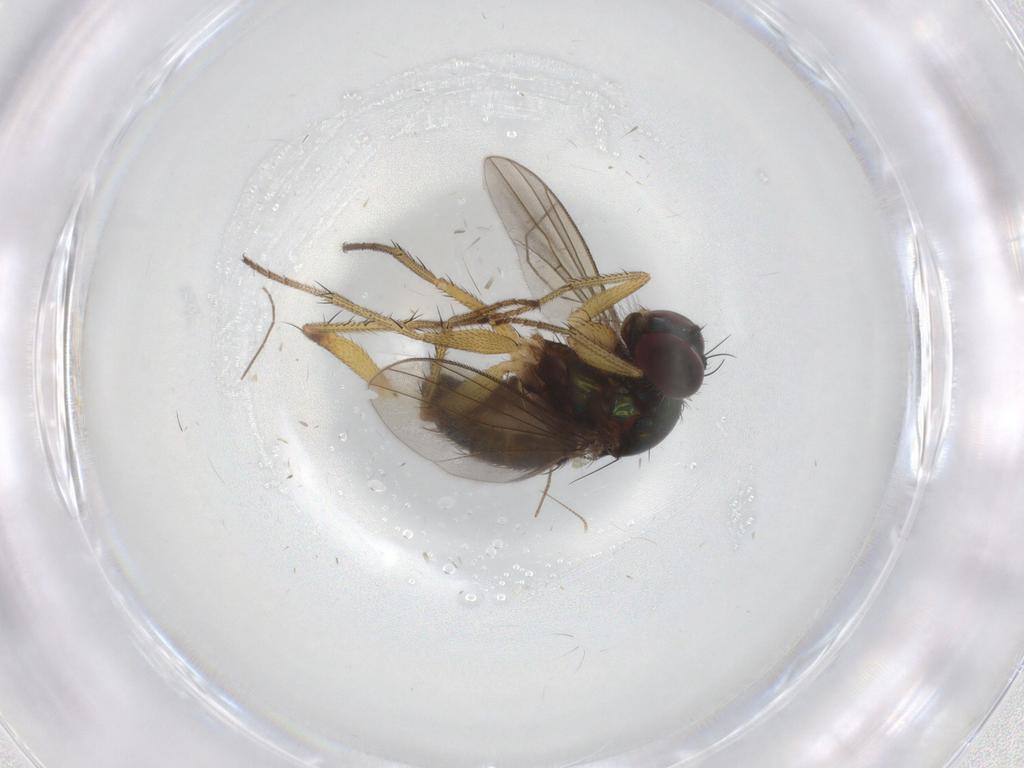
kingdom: Animalia
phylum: Arthropoda
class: Insecta
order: Diptera
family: Dolichopodidae
